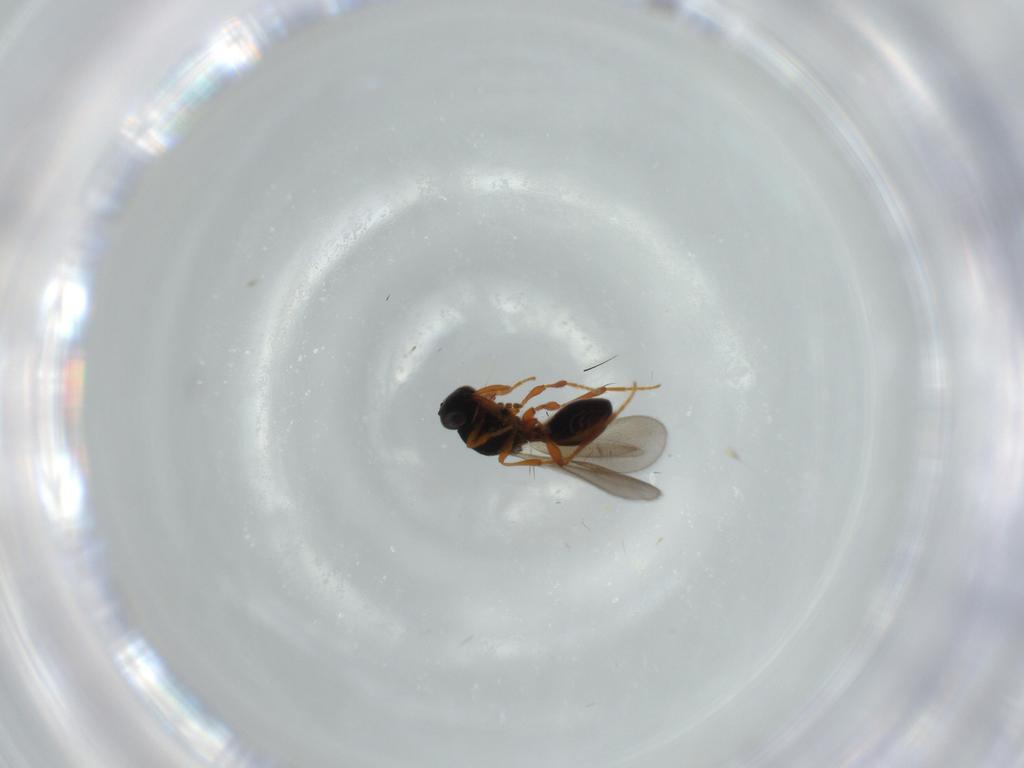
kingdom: Animalia
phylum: Arthropoda
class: Insecta
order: Hymenoptera
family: Platygastridae
